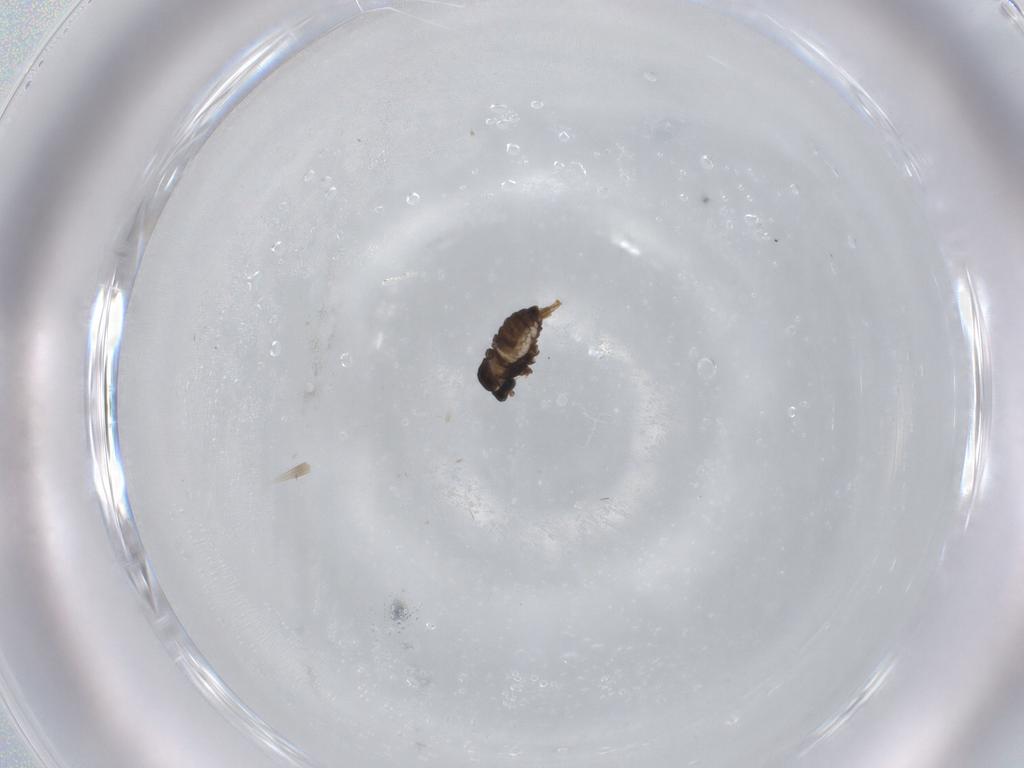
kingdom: Animalia
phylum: Arthropoda
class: Insecta
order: Diptera
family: Cecidomyiidae
